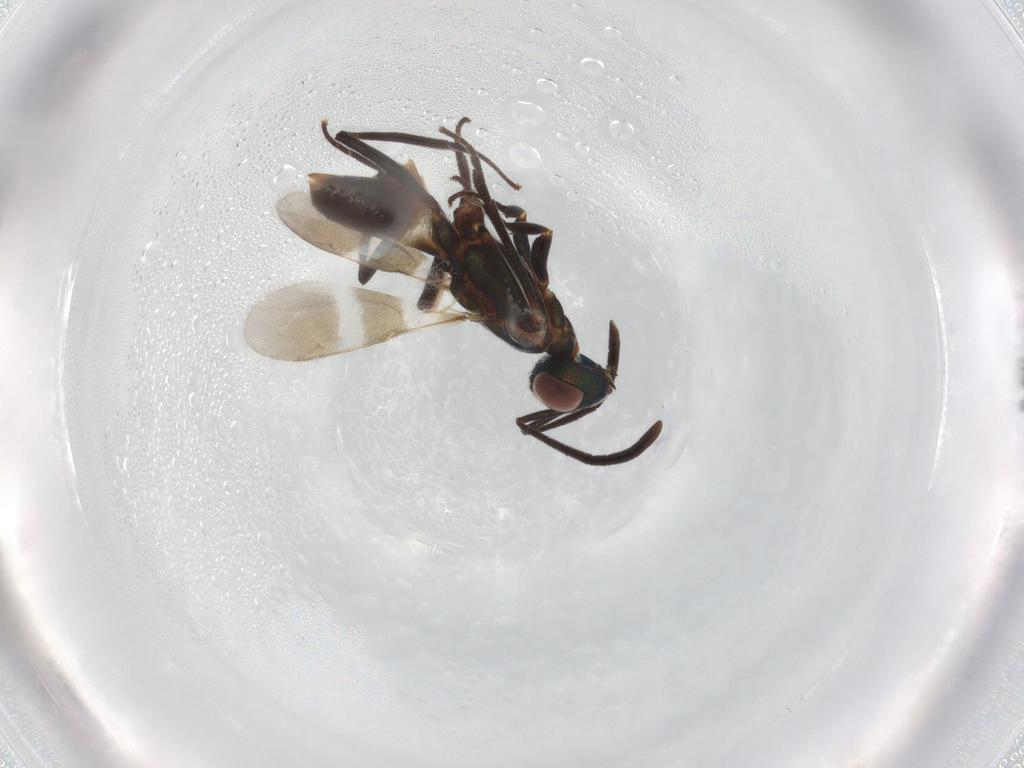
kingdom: Animalia
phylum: Arthropoda
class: Insecta
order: Hymenoptera
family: Eupelmidae
